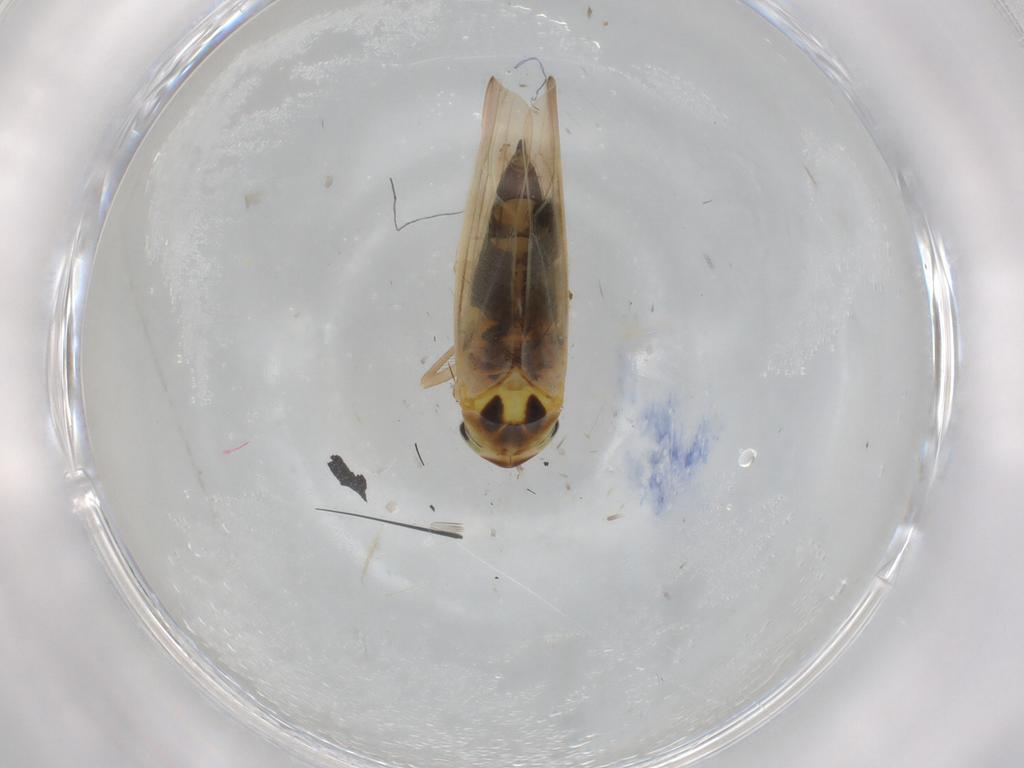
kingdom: Animalia
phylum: Arthropoda
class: Insecta
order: Hemiptera
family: Cicadellidae
